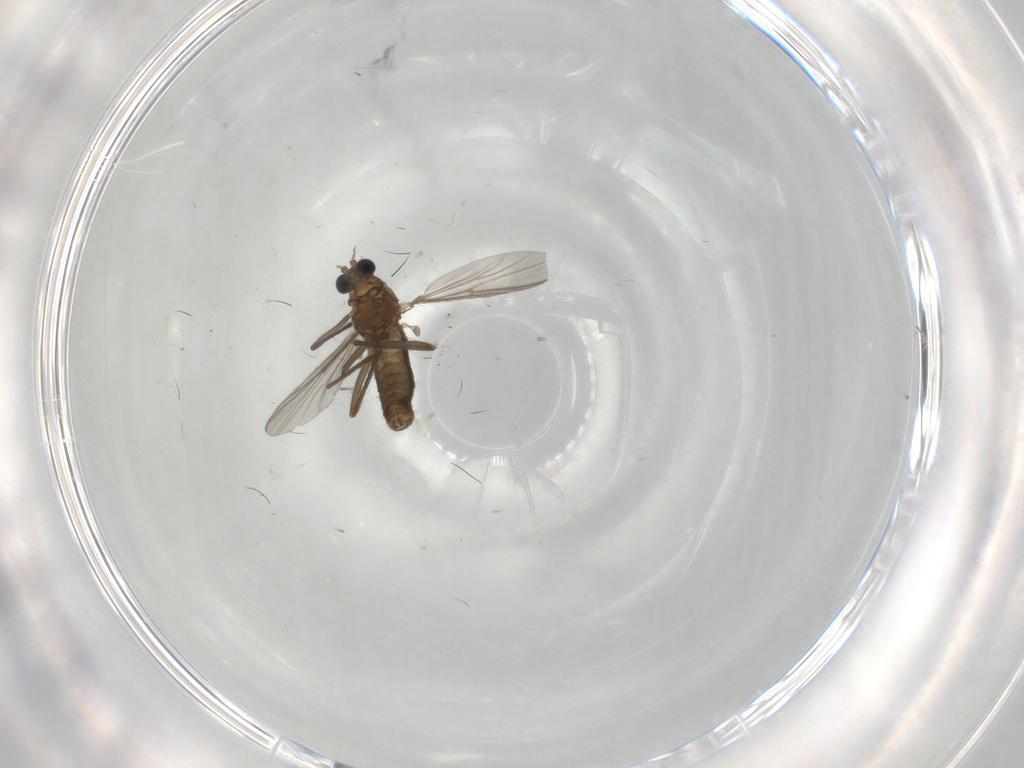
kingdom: Animalia
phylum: Arthropoda
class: Insecta
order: Diptera
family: Chironomidae
